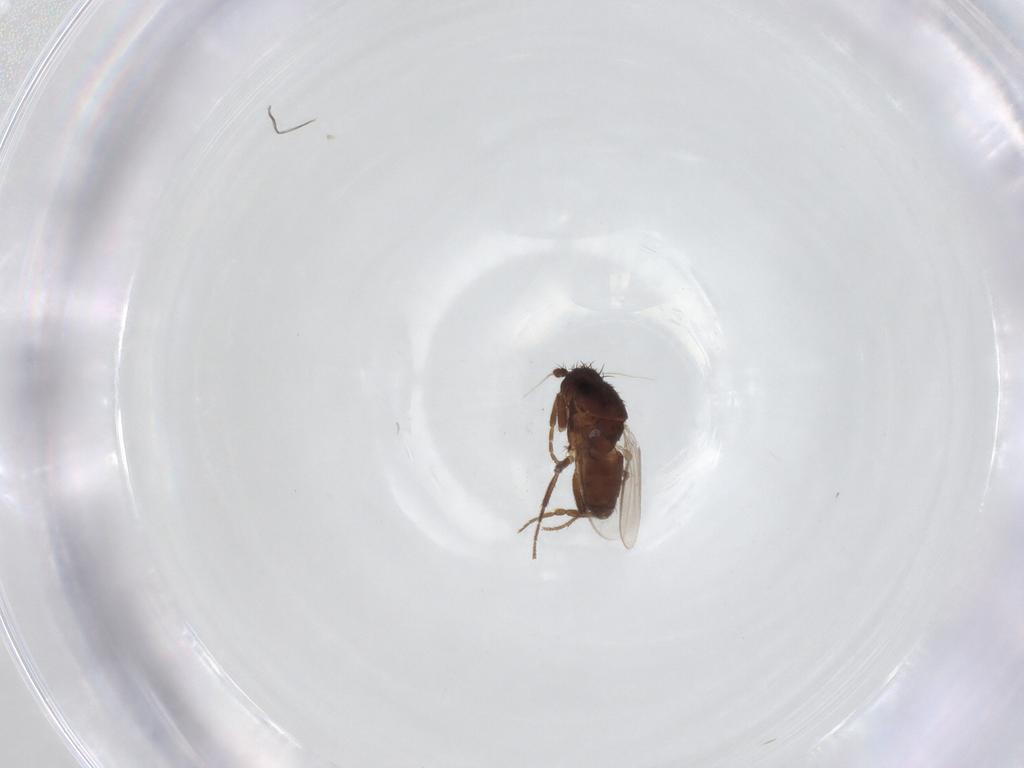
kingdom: Animalia
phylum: Arthropoda
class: Insecta
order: Diptera
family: Sphaeroceridae
